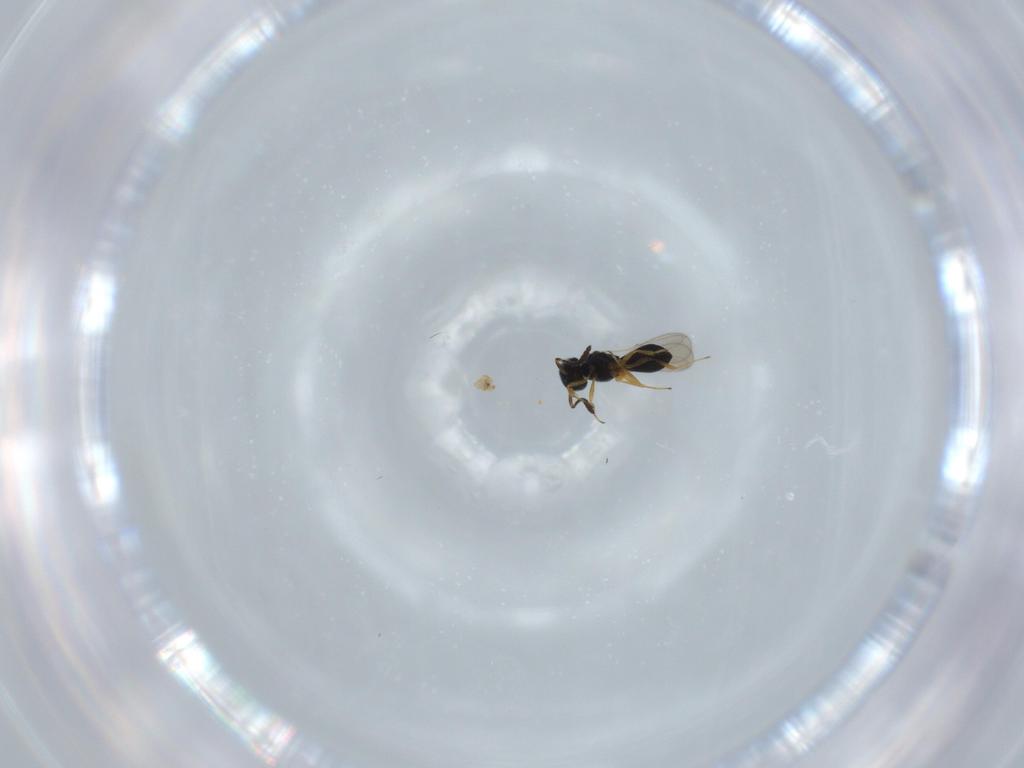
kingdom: Animalia
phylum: Arthropoda
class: Insecta
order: Hymenoptera
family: Scelionidae
